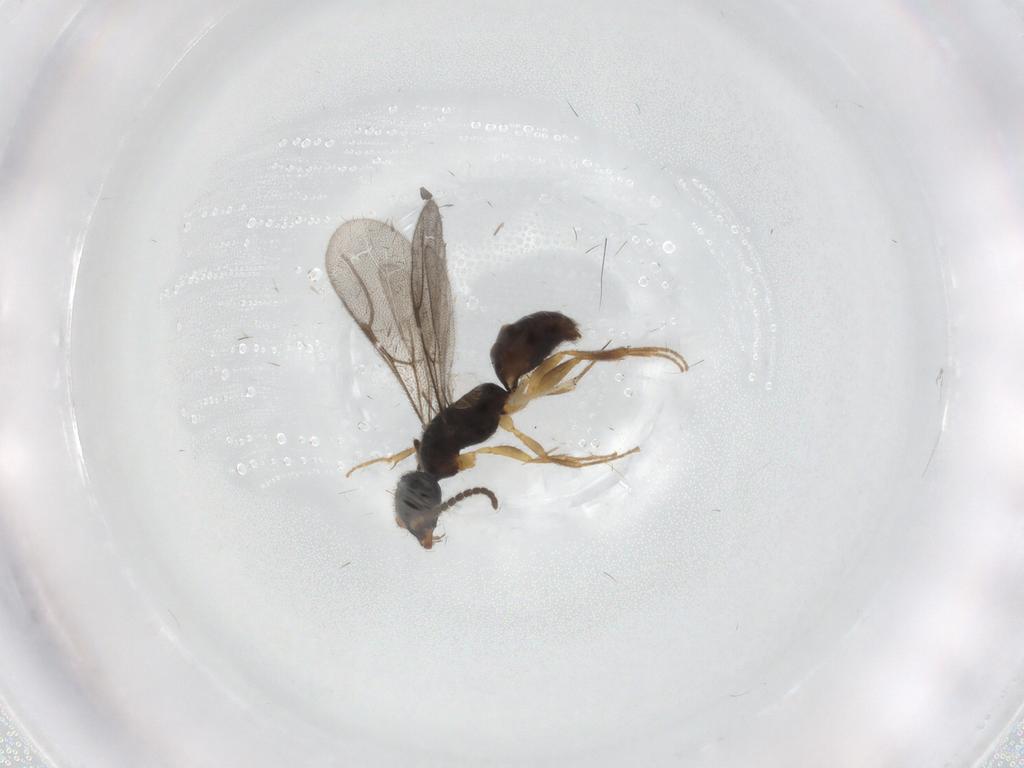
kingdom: Animalia
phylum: Arthropoda
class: Insecta
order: Hymenoptera
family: Bethylidae
